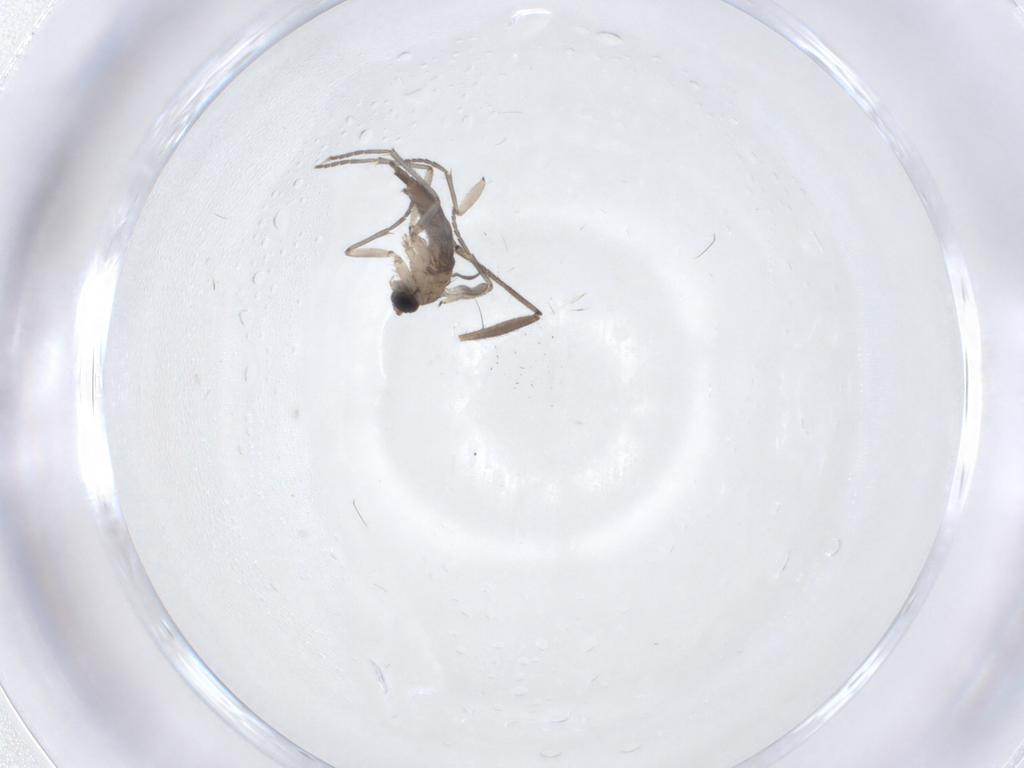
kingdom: Animalia
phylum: Arthropoda
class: Insecta
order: Diptera
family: Sciaridae
